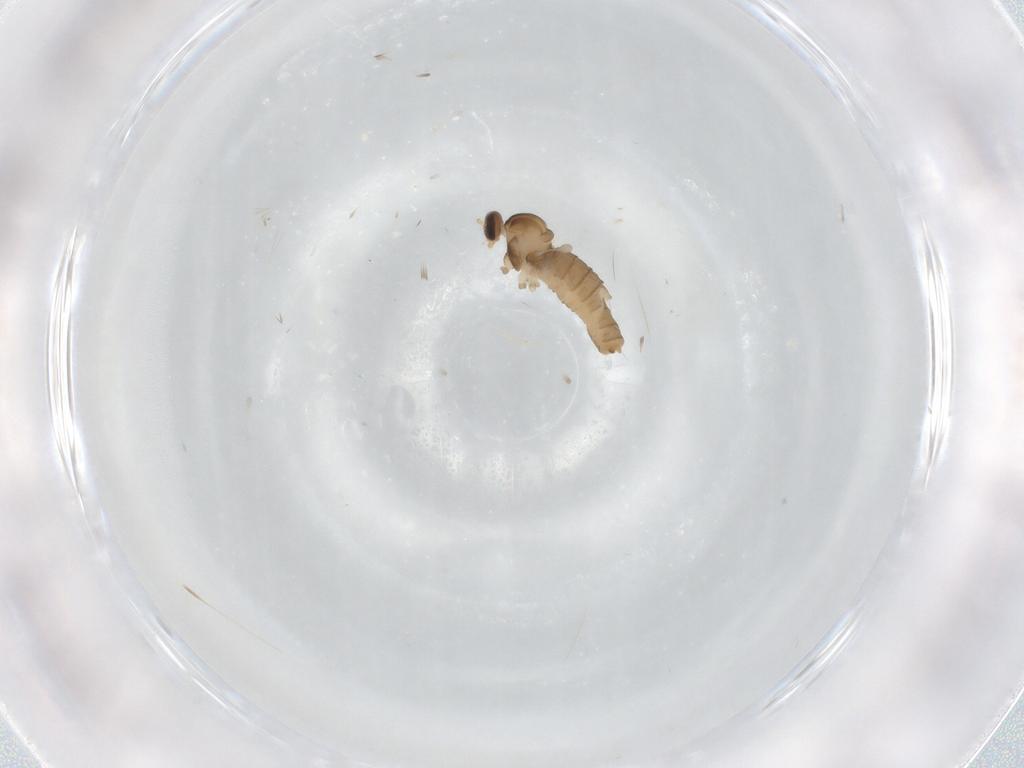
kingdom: Animalia
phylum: Arthropoda
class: Insecta
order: Diptera
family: Cecidomyiidae
